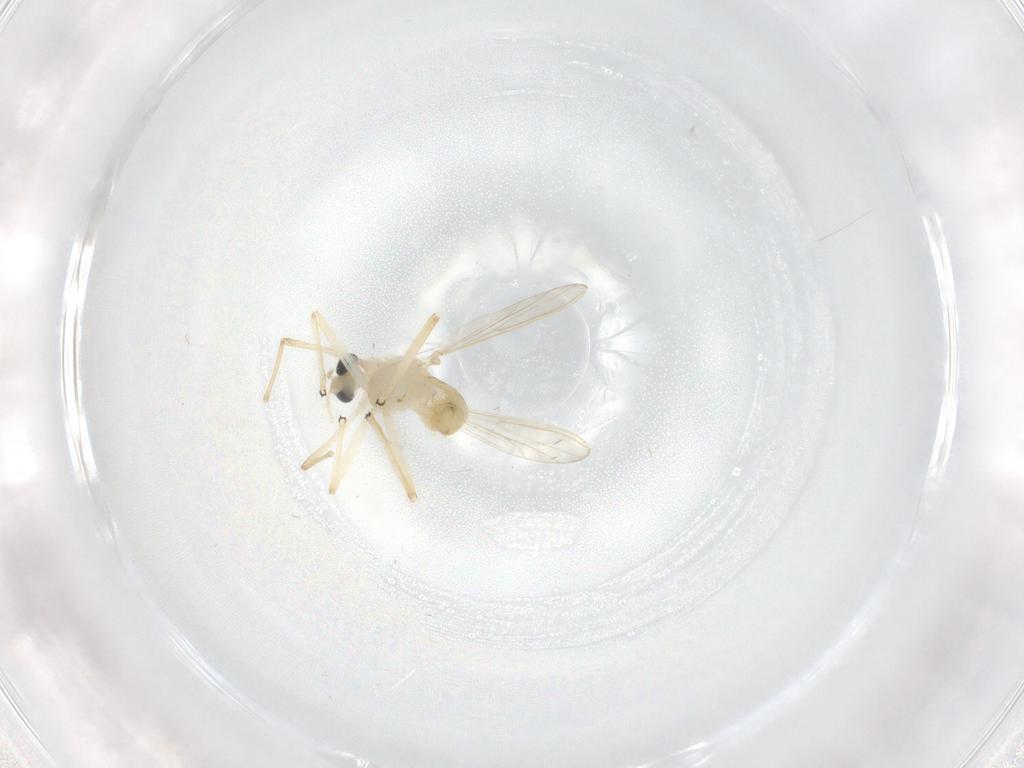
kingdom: Animalia
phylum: Arthropoda
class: Insecta
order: Diptera
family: Chironomidae
